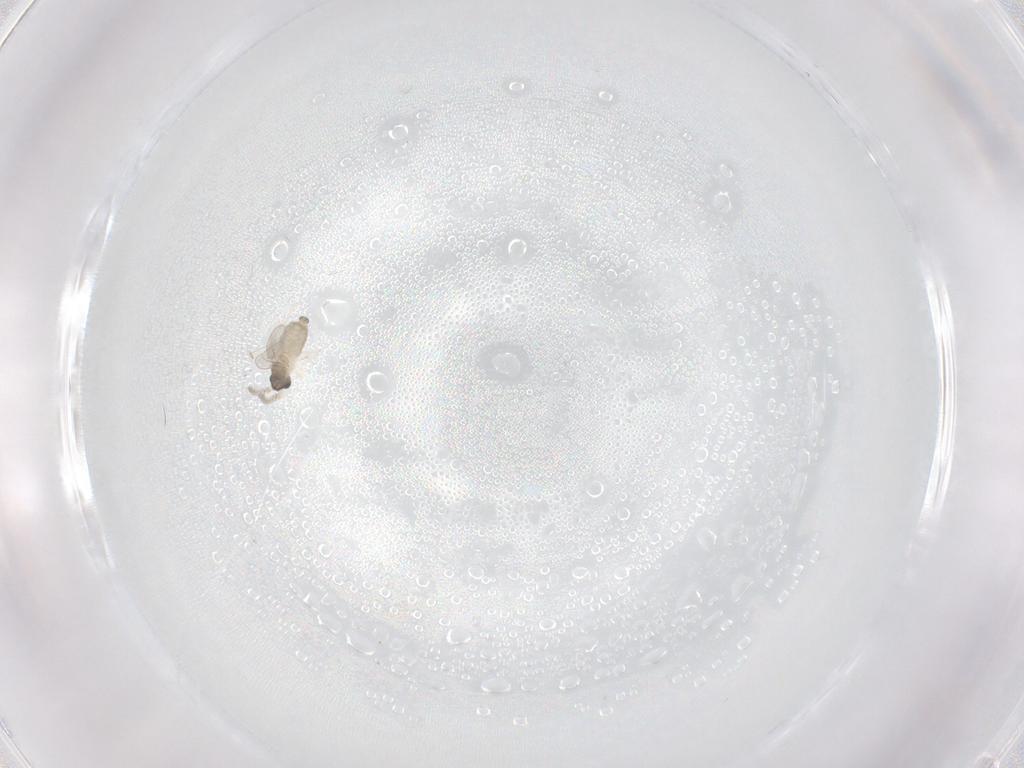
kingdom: Animalia
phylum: Arthropoda
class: Insecta
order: Diptera
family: Cecidomyiidae
